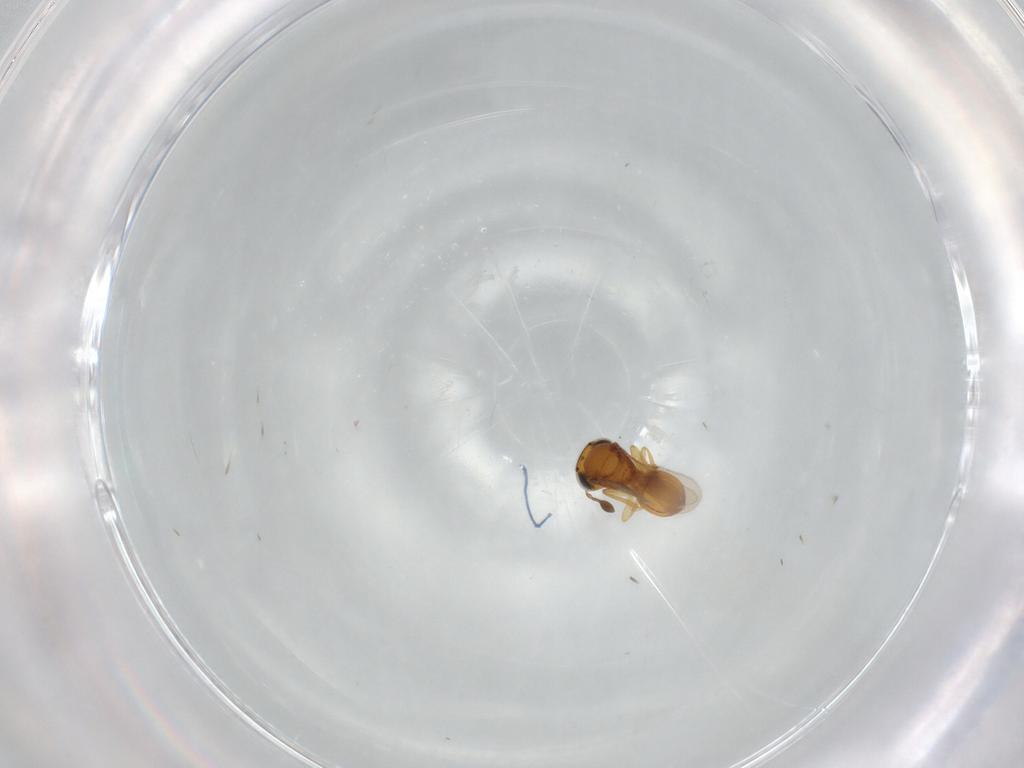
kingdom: Animalia
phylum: Arthropoda
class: Insecta
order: Hymenoptera
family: Scelionidae
